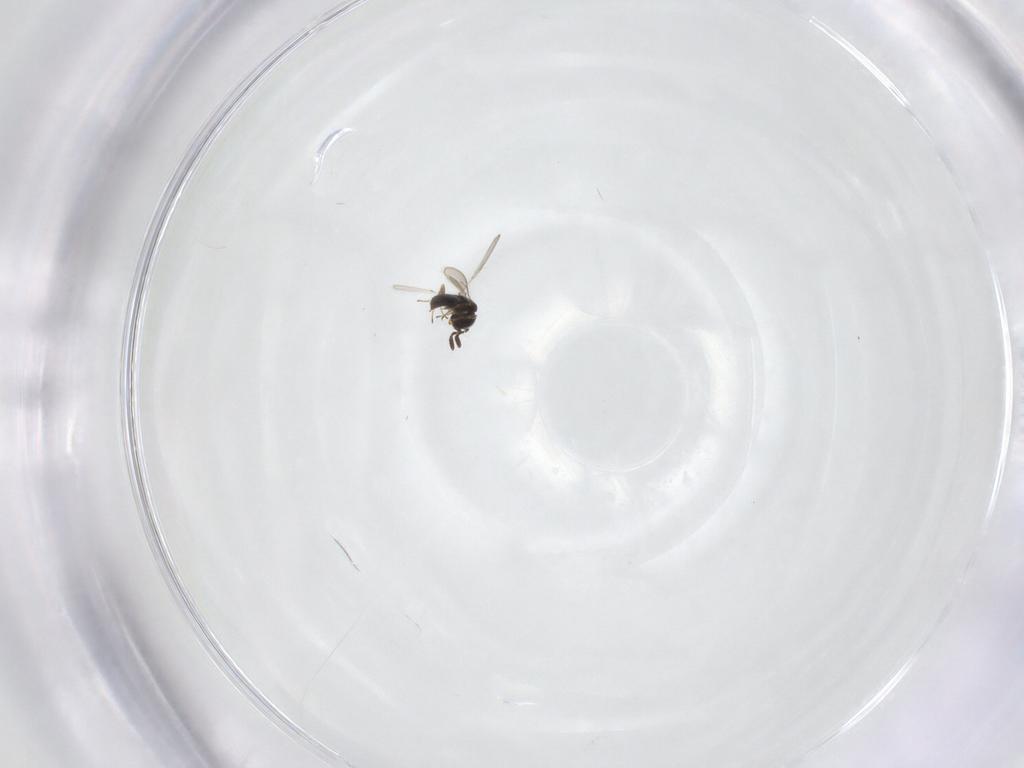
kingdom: Animalia
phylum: Arthropoda
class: Insecta
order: Hymenoptera
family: Scelionidae
